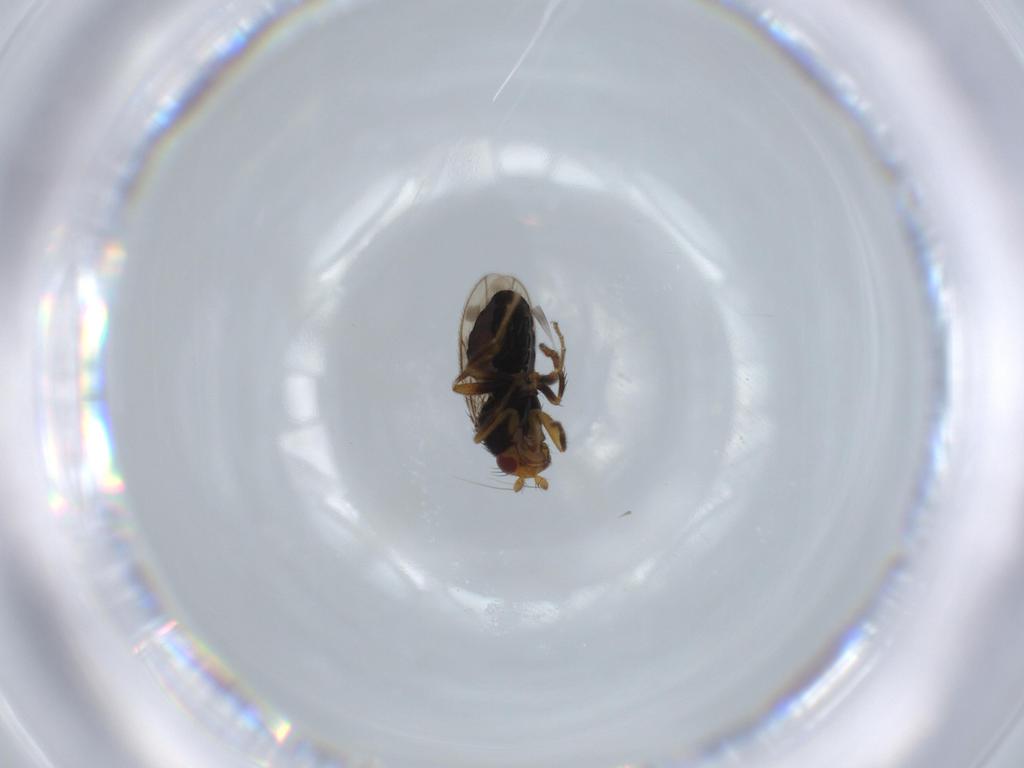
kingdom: Animalia
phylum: Arthropoda
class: Insecta
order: Diptera
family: Sphaeroceridae
